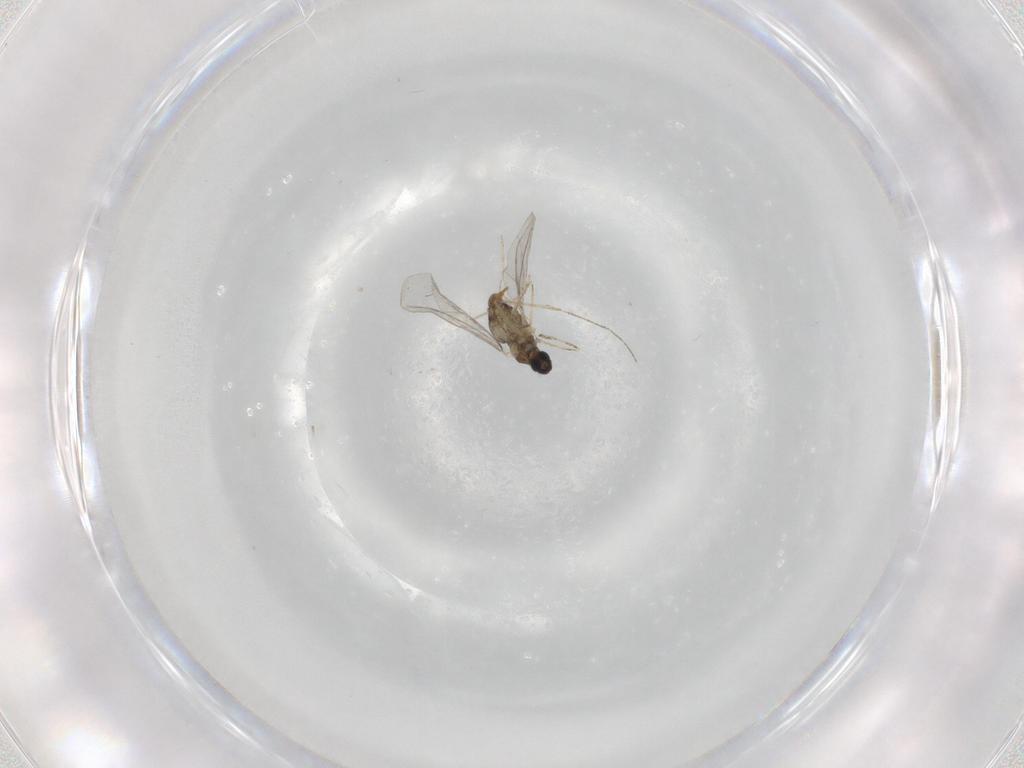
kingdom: Animalia
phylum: Arthropoda
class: Insecta
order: Diptera
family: Cecidomyiidae
